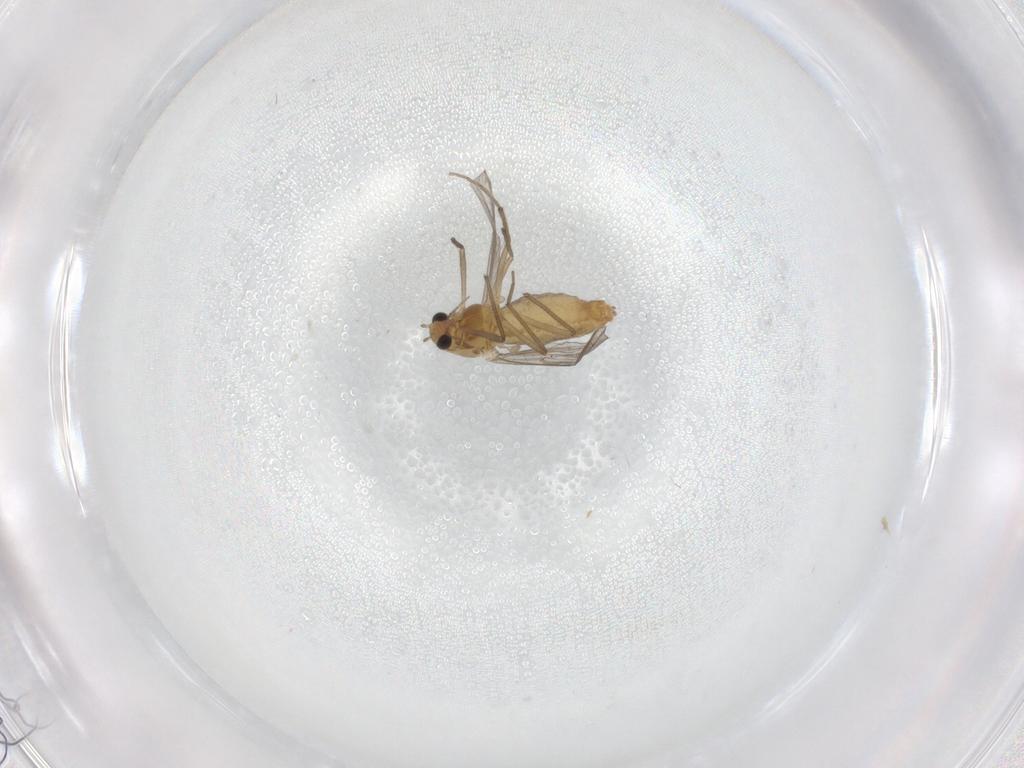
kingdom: Animalia
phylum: Arthropoda
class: Insecta
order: Diptera
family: Chironomidae
